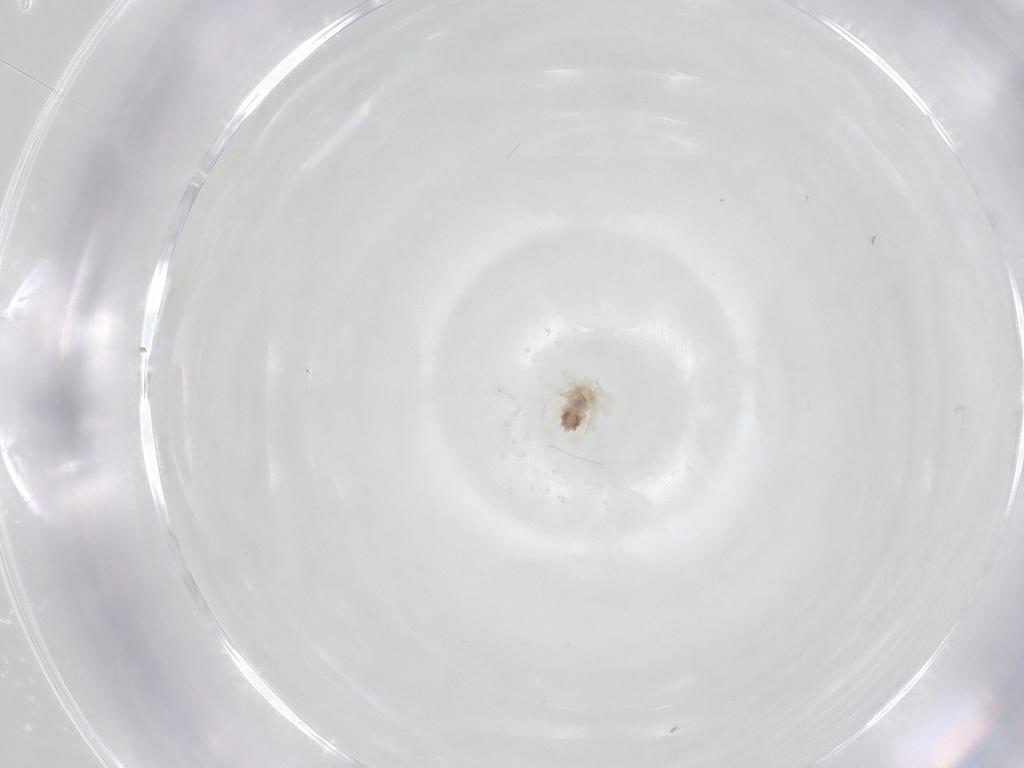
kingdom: Animalia
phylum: Arthropoda
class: Arachnida
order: Trombidiformes
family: Anystidae
